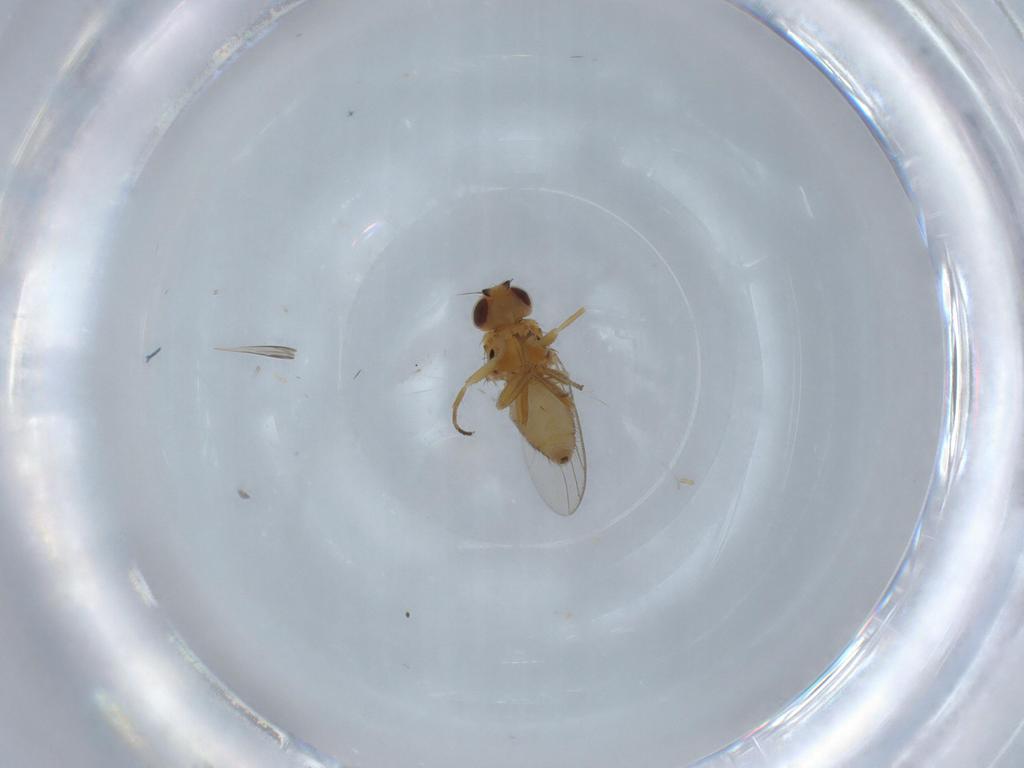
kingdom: Animalia
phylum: Arthropoda
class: Insecta
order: Diptera
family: Chloropidae
